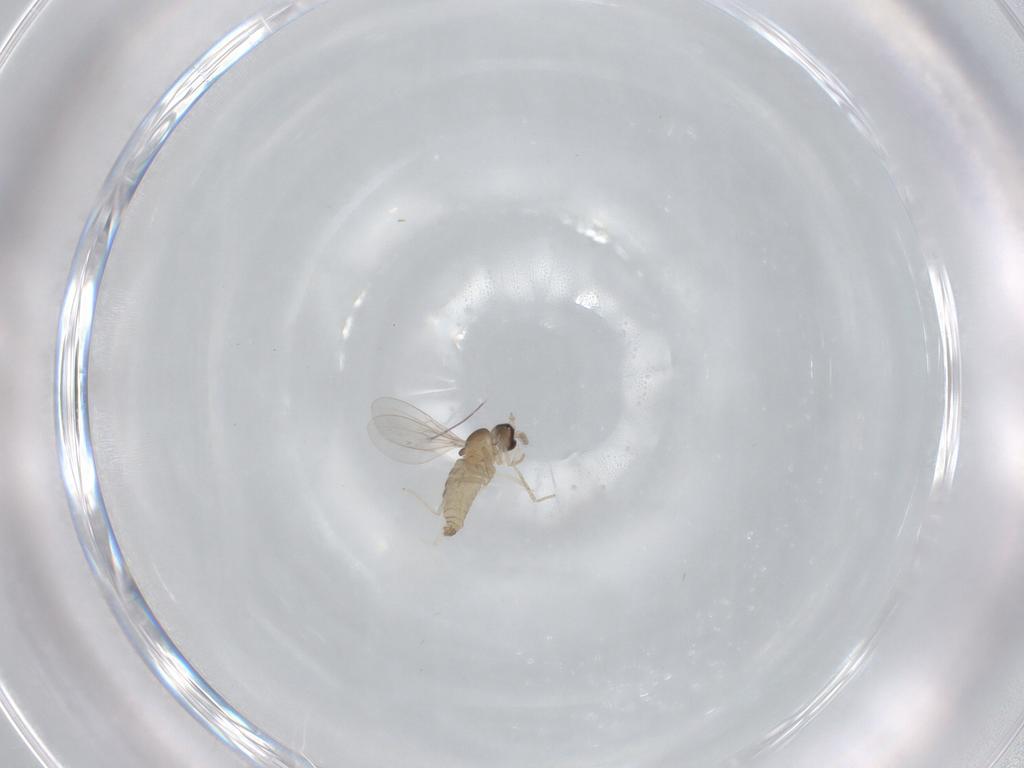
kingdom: Animalia
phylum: Arthropoda
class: Insecta
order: Diptera
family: Cecidomyiidae
